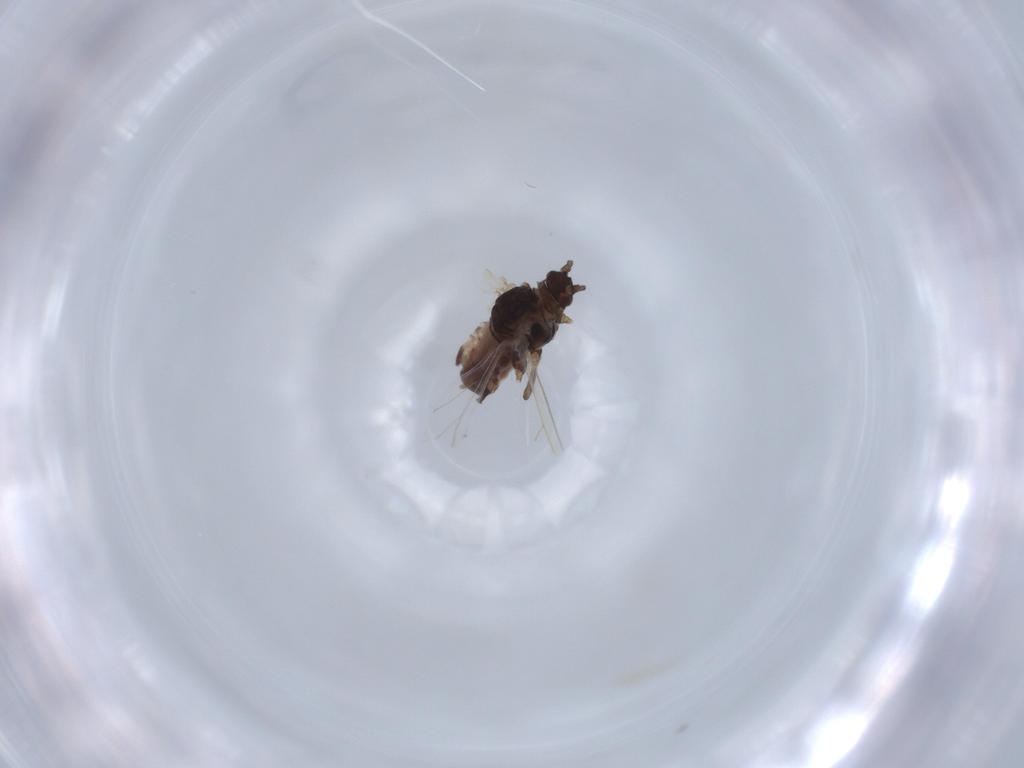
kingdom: Animalia
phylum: Arthropoda
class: Insecta
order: Hemiptera
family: Aphididae
